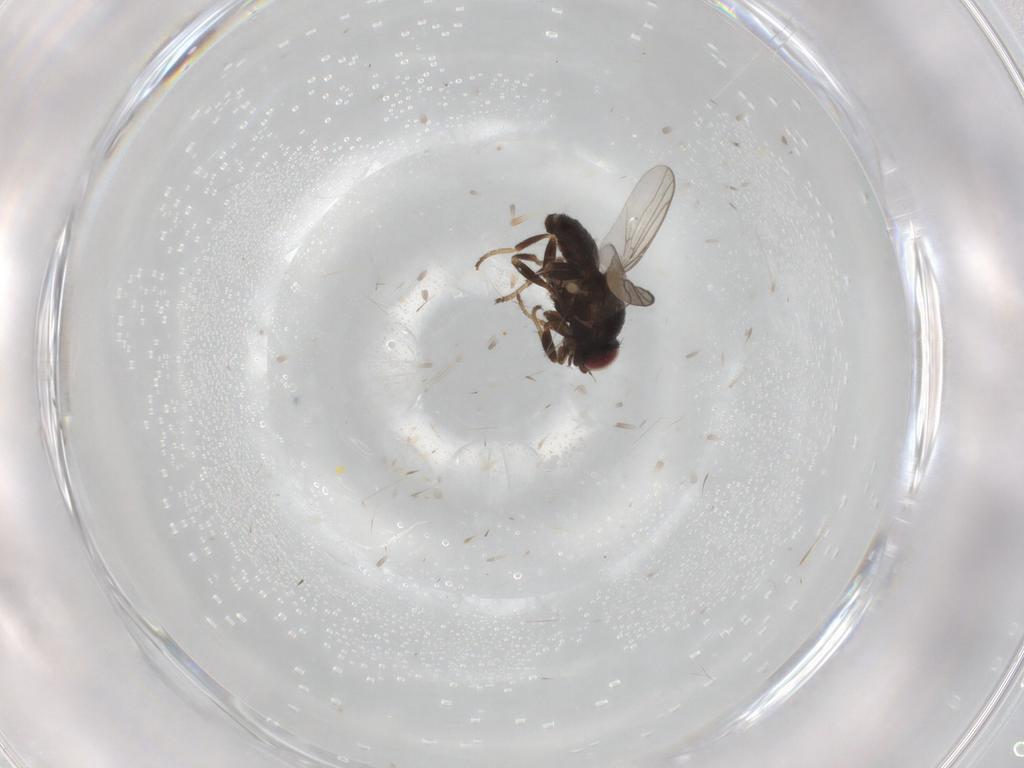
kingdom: Animalia
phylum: Arthropoda
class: Insecta
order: Diptera
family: Chloropidae
